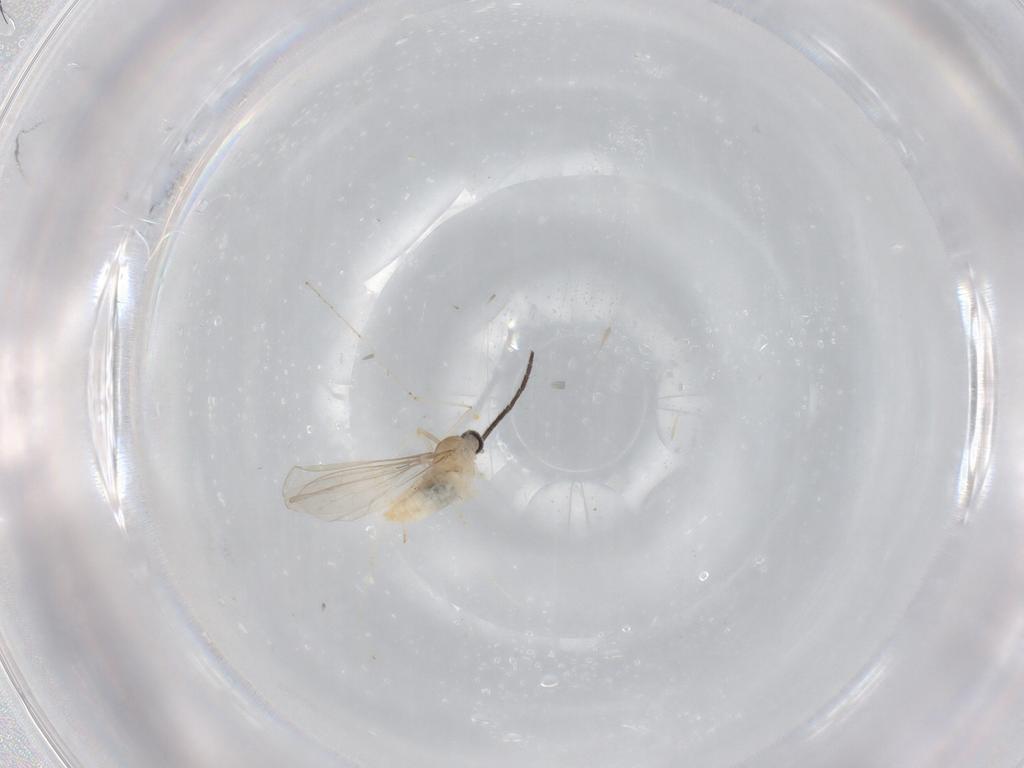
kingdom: Animalia
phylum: Arthropoda
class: Insecta
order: Diptera
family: Cecidomyiidae
